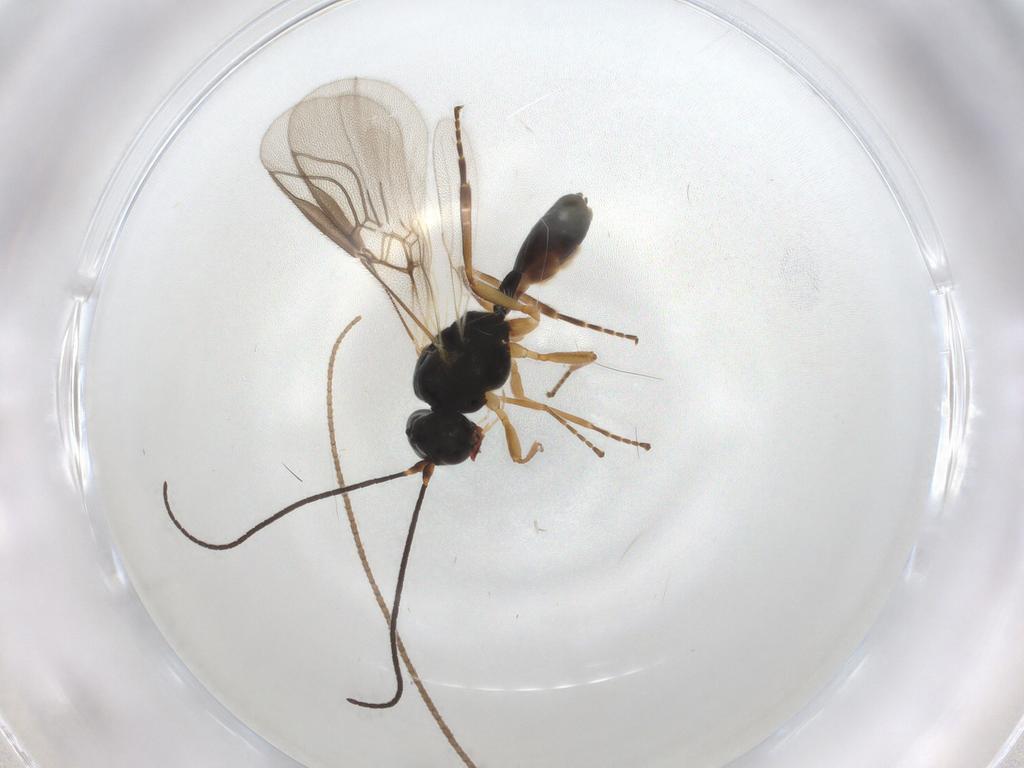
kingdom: Animalia
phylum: Arthropoda
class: Insecta
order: Hymenoptera
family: Braconidae
